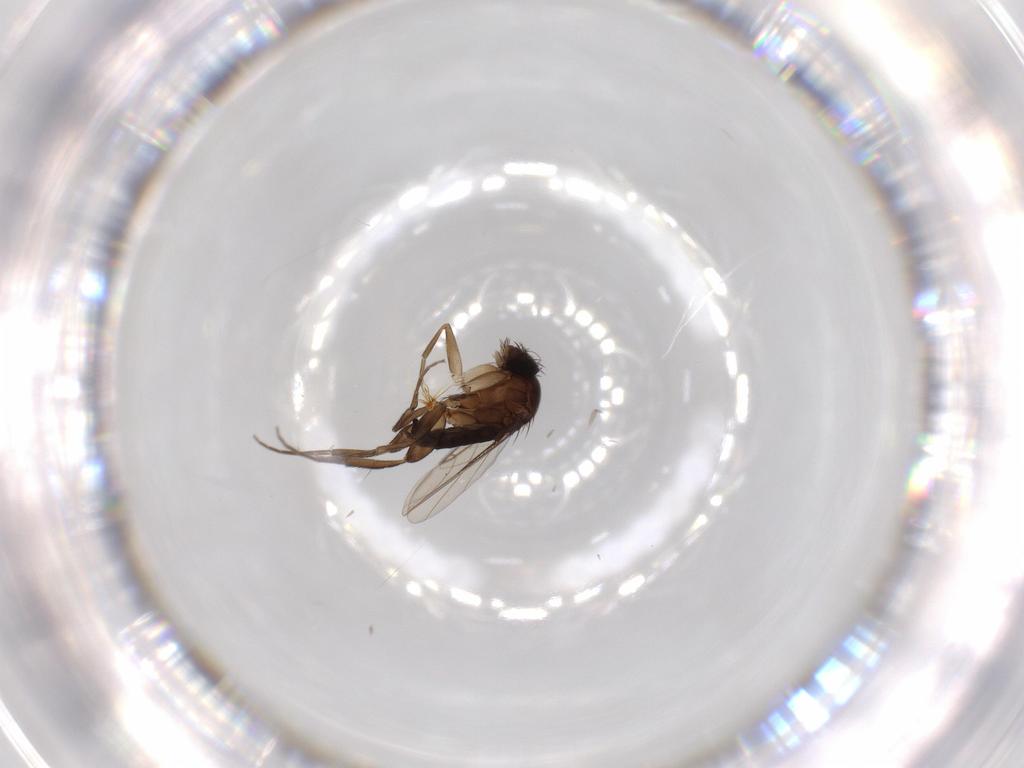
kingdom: Animalia
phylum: Arthropoda
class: Insecta
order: Diptera
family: Phoridae
